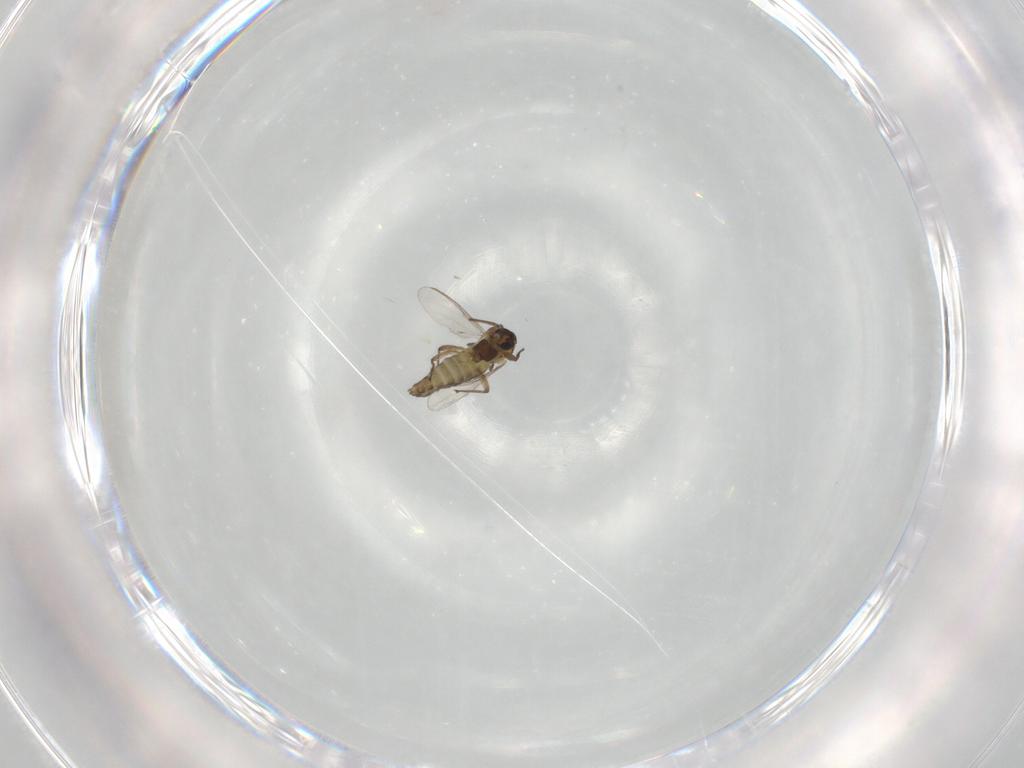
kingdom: Animalia
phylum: Arthropoda
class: Insecta
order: Diptera
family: Chironomidae
